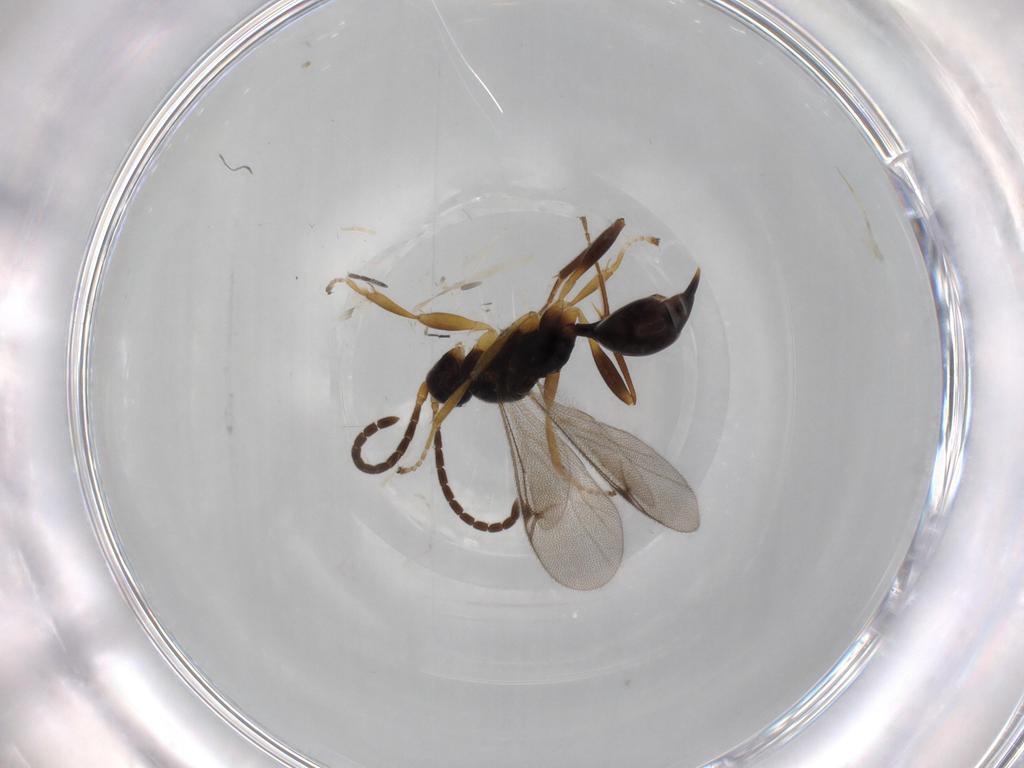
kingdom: Animalia
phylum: Arthropoda
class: Insecta
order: Hymenoptera
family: Proctotrupidae
